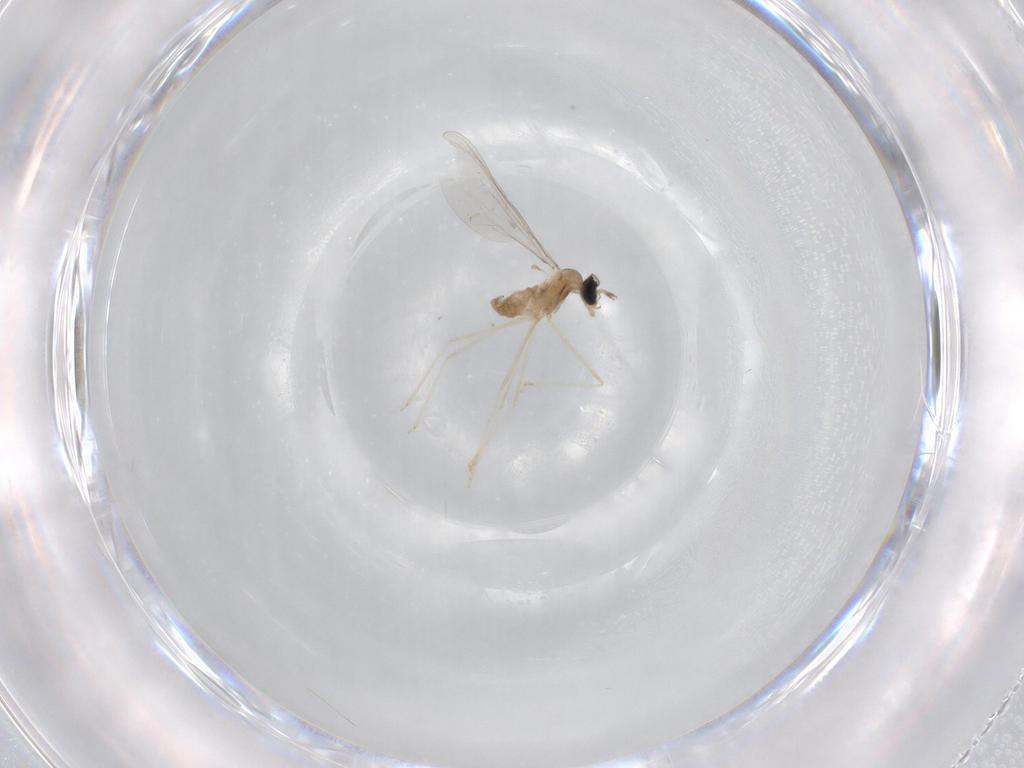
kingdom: Animalia
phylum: Arthropoda
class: Insecta
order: Diptera
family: Cecidomyiidae
